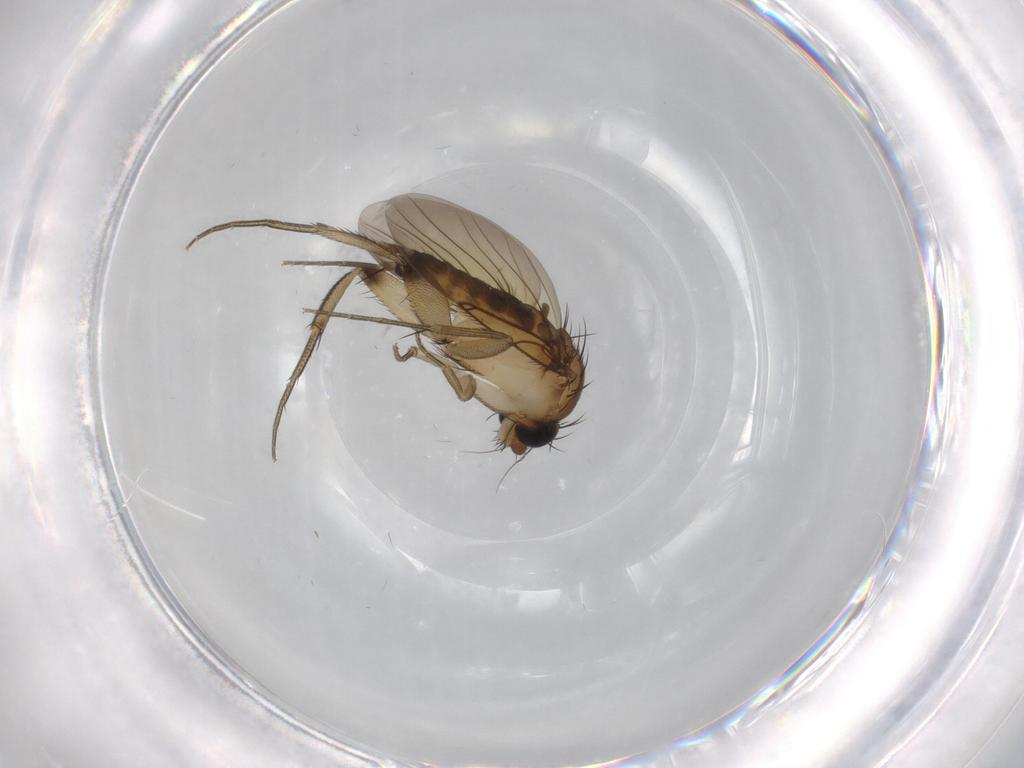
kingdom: Animalia
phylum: Arthropoda
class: Insecta
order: Diptera
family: Phoridae
